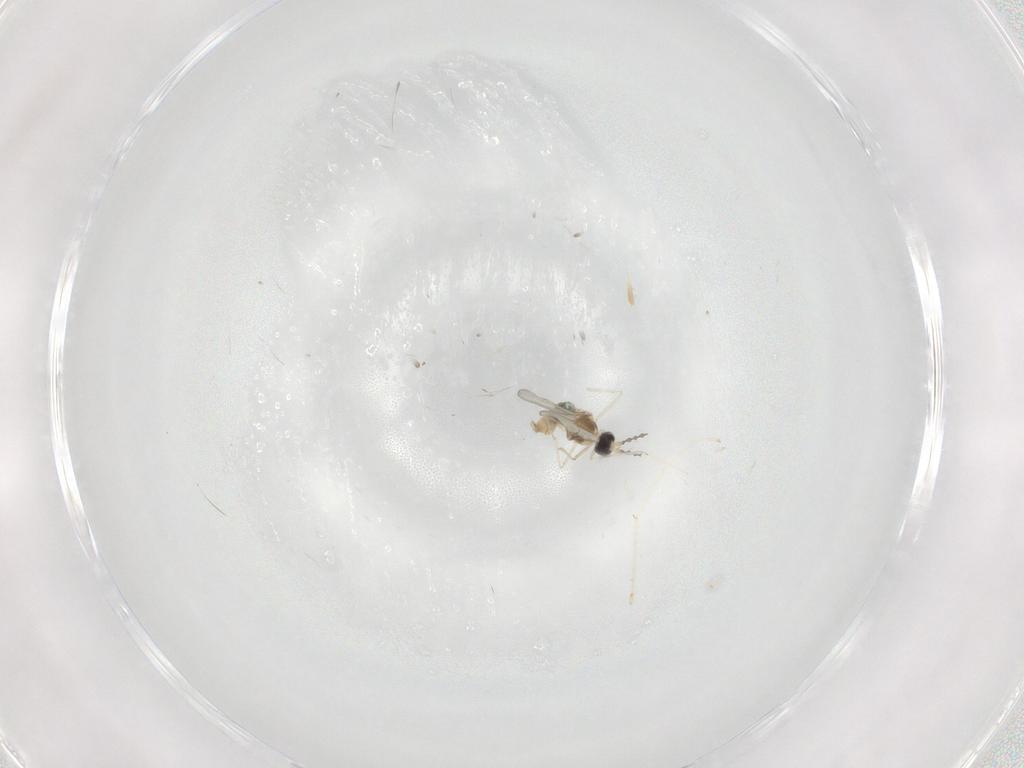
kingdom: Animalia
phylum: Arthropoda
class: Insecta
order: Diptera
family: Cecidomyiidae
